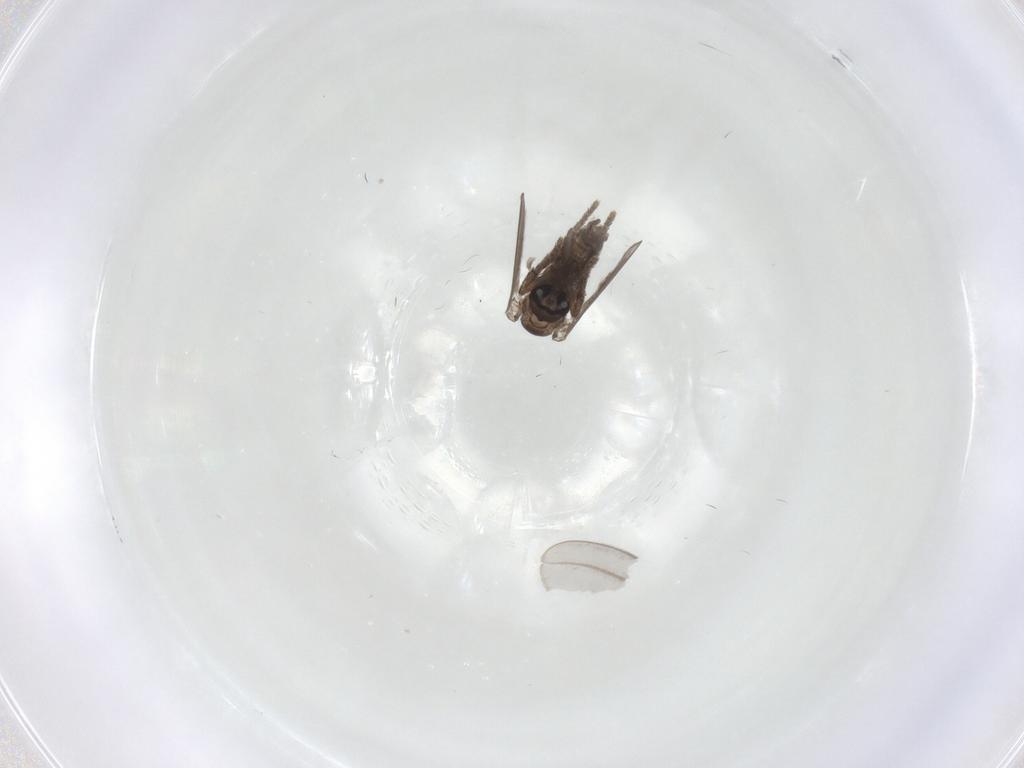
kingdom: Animalia
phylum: Arthropoda
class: Insecta
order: Diptera
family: Psychodidae
